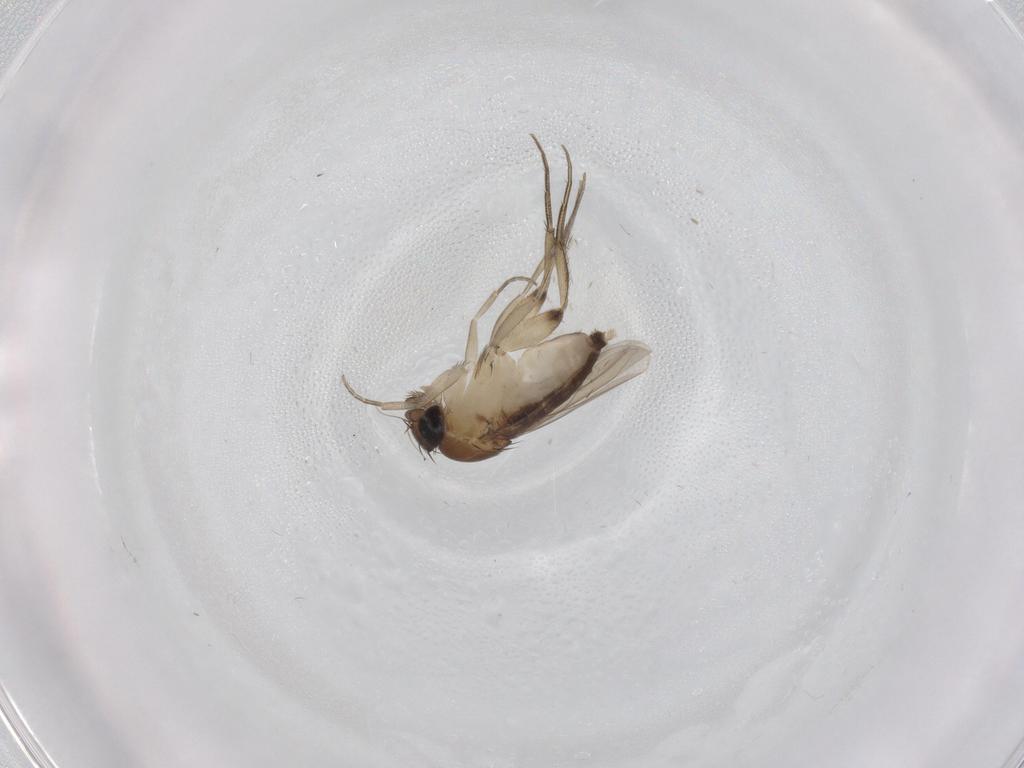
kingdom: Animalia
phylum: Arthropoda
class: Insecta
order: Diptera
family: Phoridae
